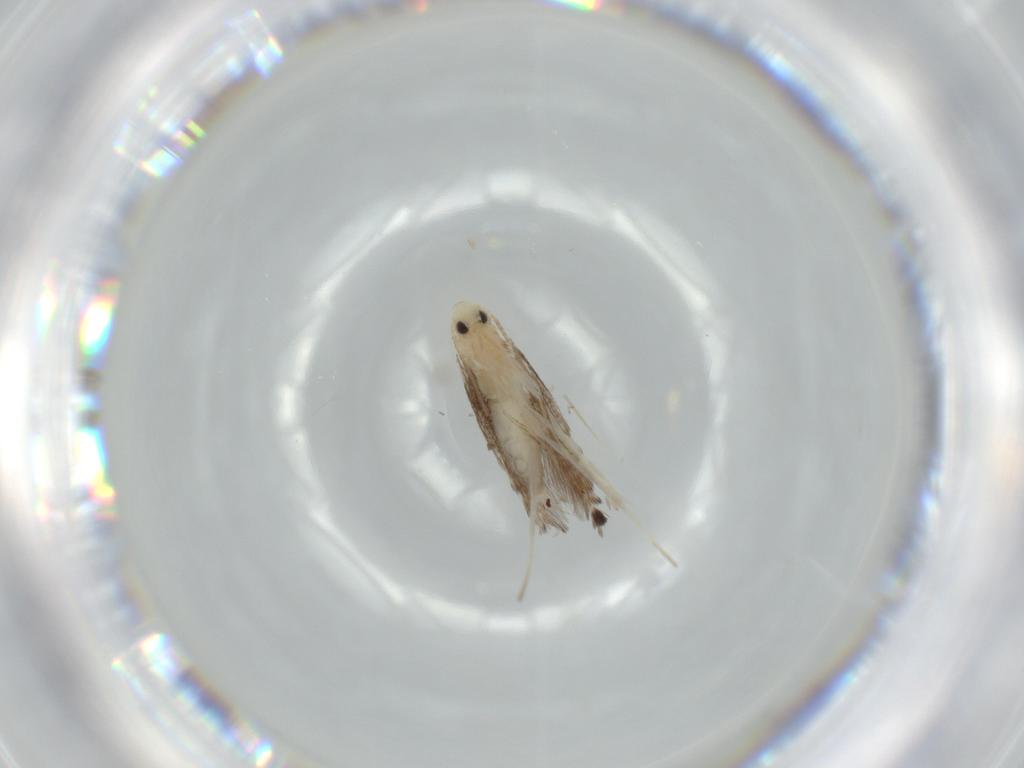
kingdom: Animalia
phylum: Arthropoda
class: Insecta
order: Lepidoptera
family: Gracillariidae
